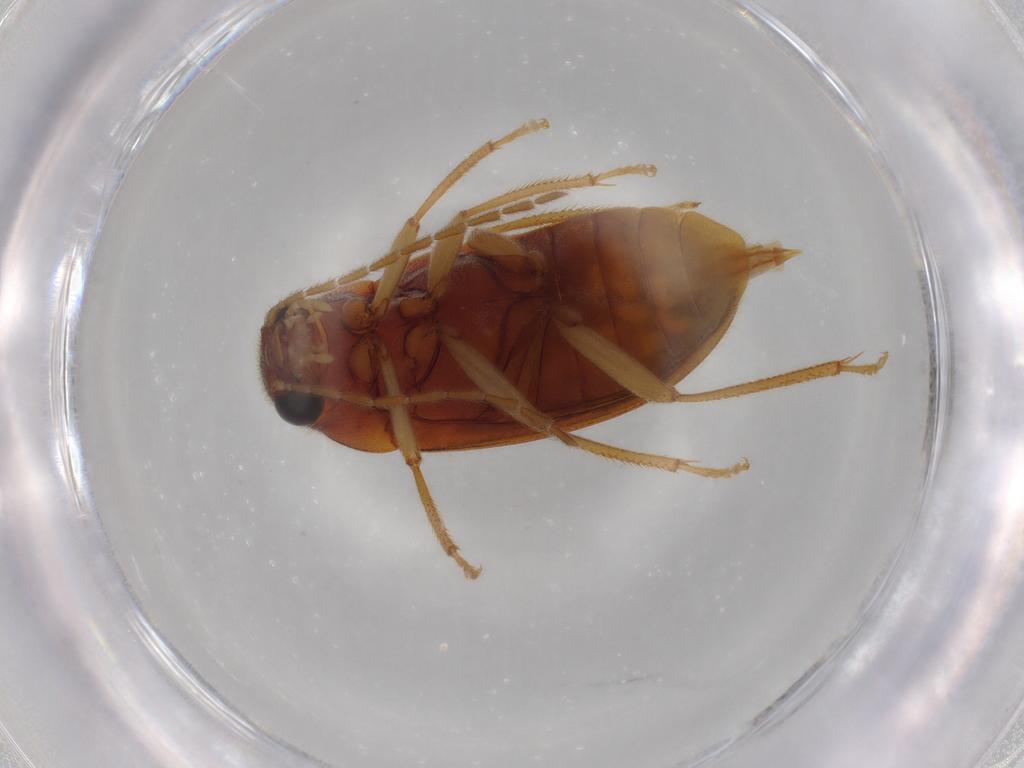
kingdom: Animalia
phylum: Arthropoda
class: Insecta
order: Coleoptera
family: Ptilodactylidae
